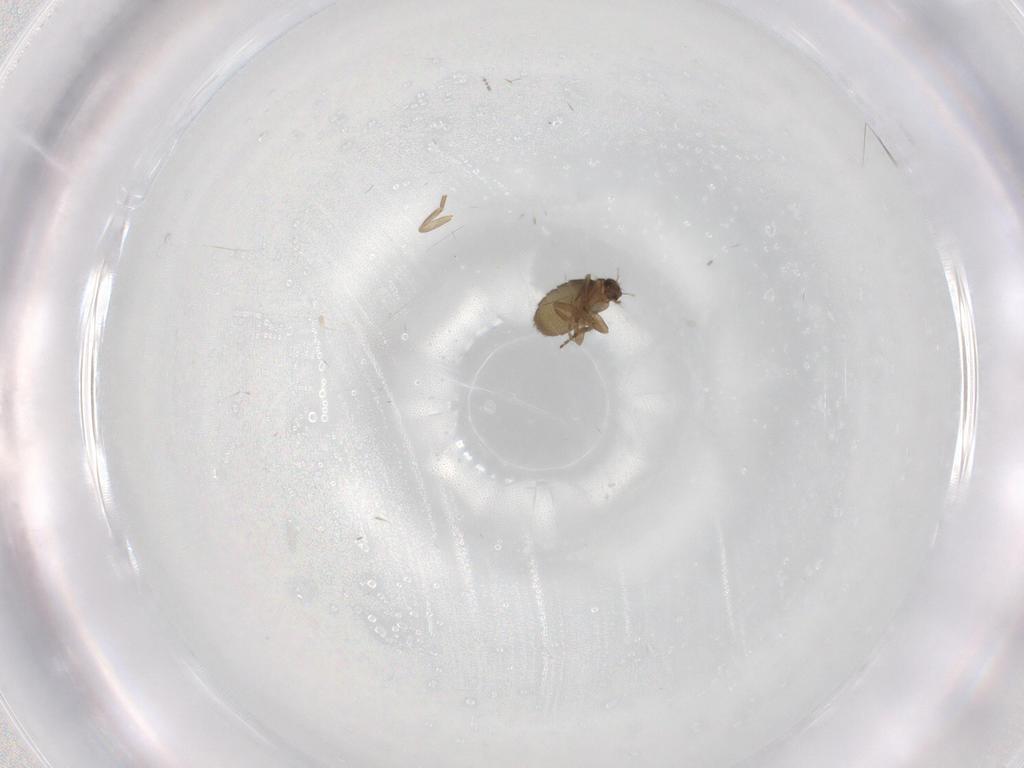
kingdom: Animalia
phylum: Arthropoda
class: Insecta
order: Diptera
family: Cecidomyiidae
